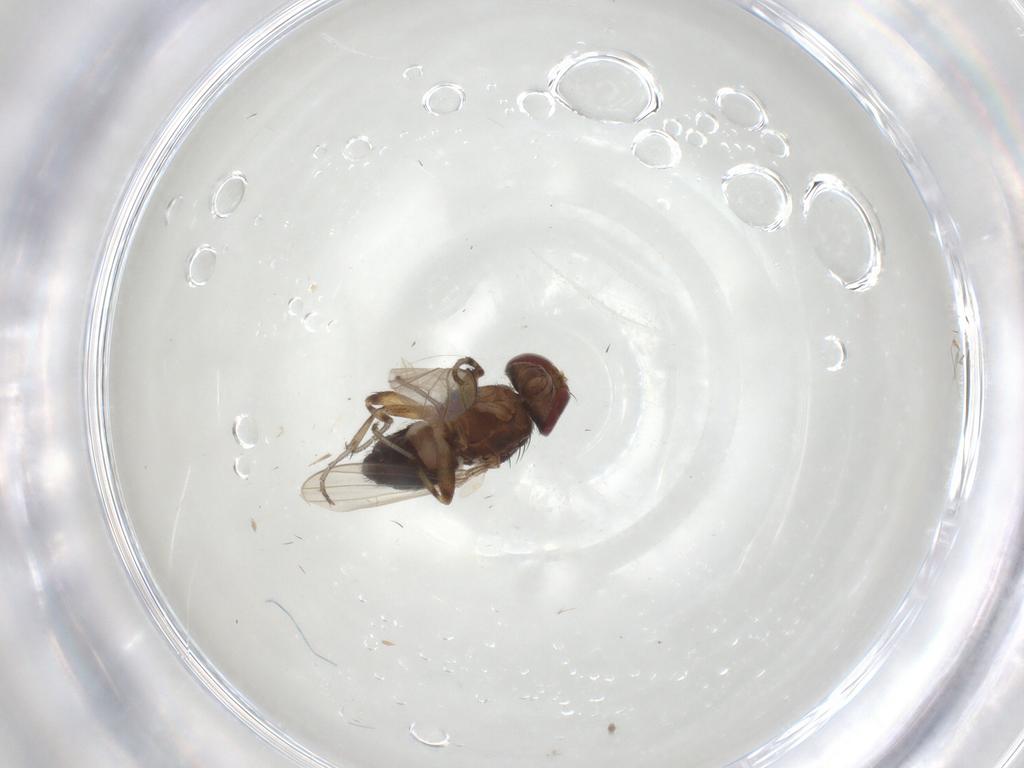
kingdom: Animalia
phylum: Arthropoda
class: Insecta
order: Diptera
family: Heleomyzidae
